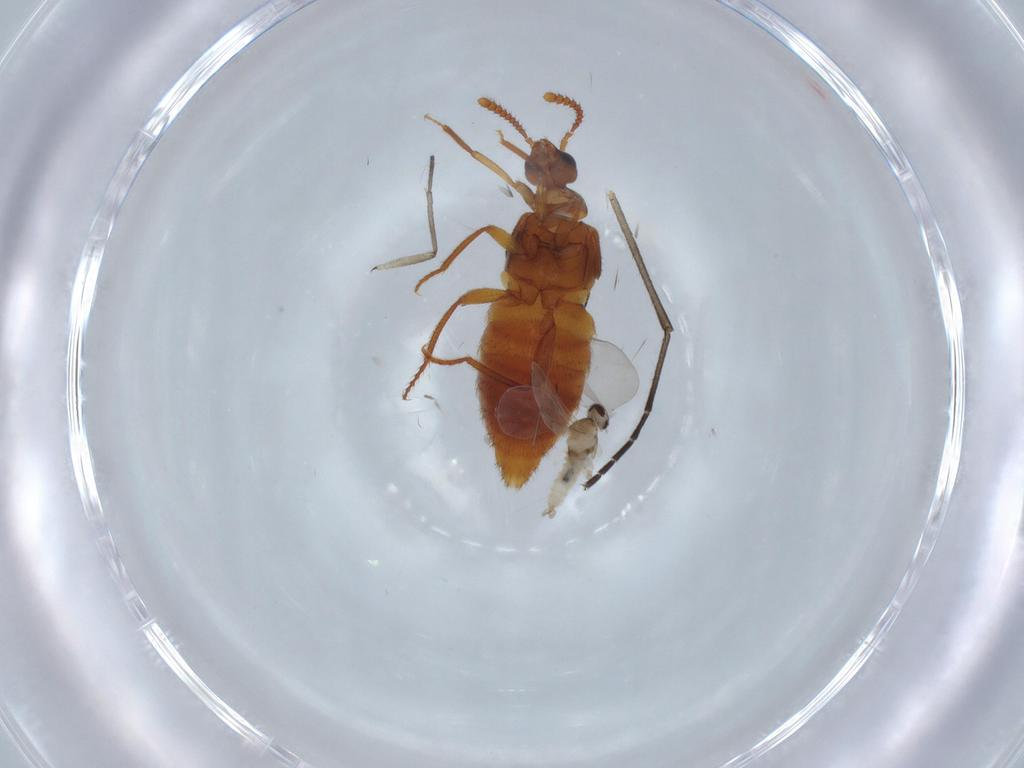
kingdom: Animalia
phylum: Arthropoda
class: Insecta
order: Coleoptera
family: Staphylinidae
